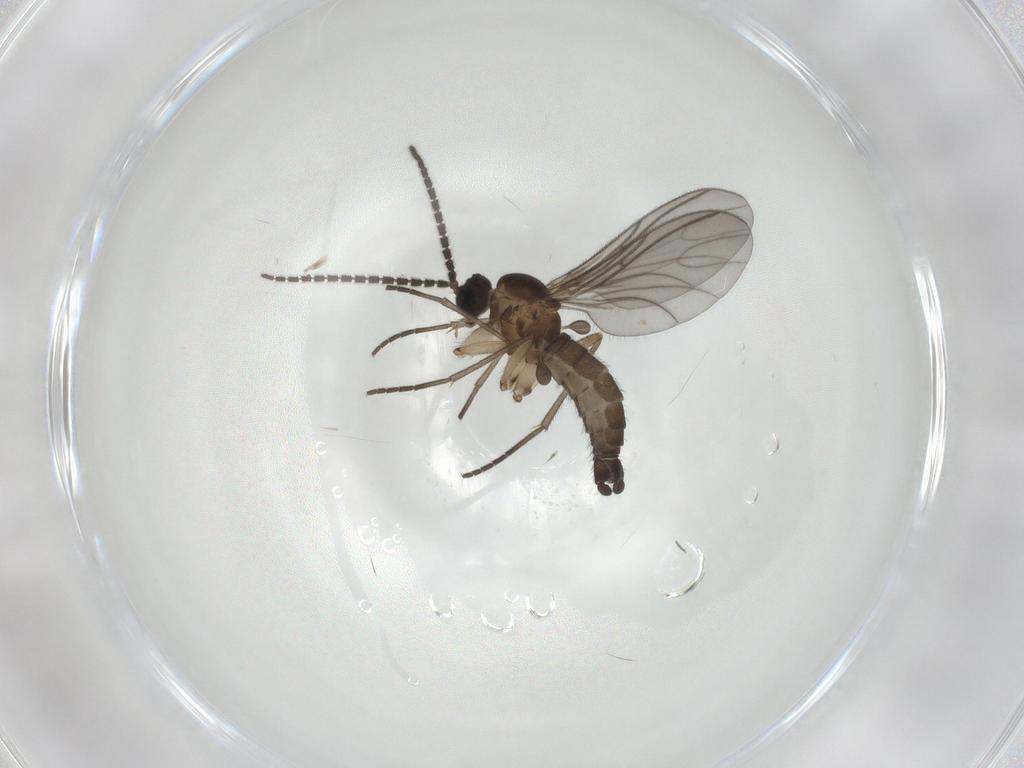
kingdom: Animalia
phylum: Arthropoda
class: Insecta
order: Diptera
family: Sciaridae
